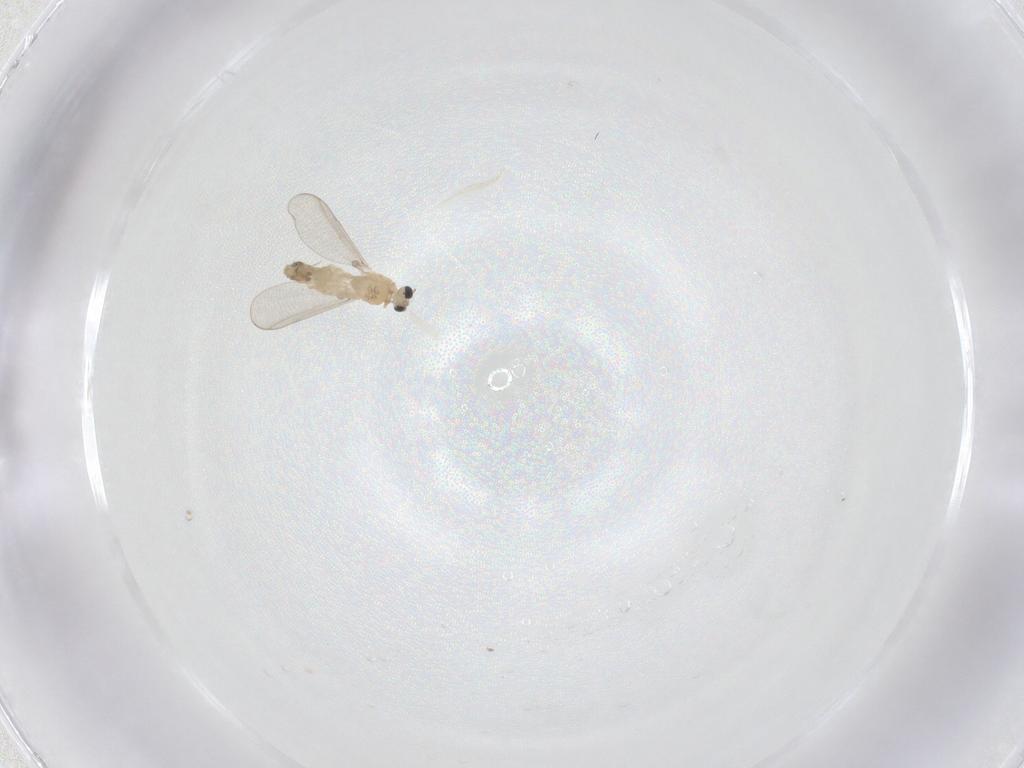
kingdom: Animalia
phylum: Arthropoda
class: Insecta
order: Diptera
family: Chironomidae
